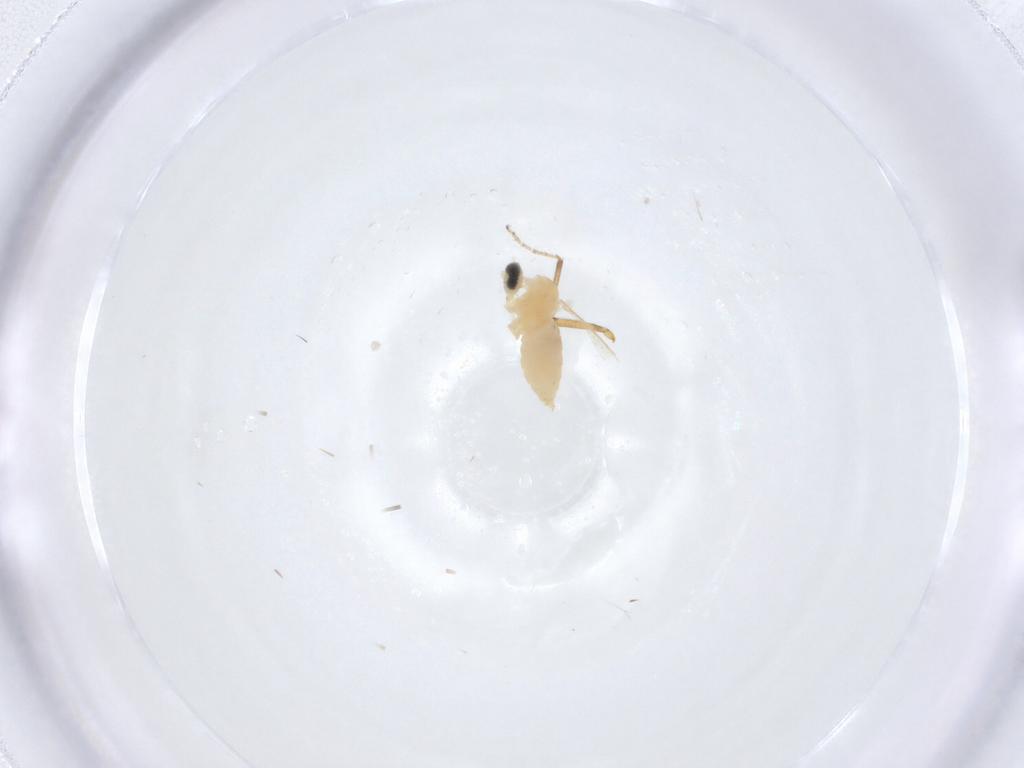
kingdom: Animalia
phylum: Arthropoda
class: Insecta
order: Diptera
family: Cecidomyiidae
